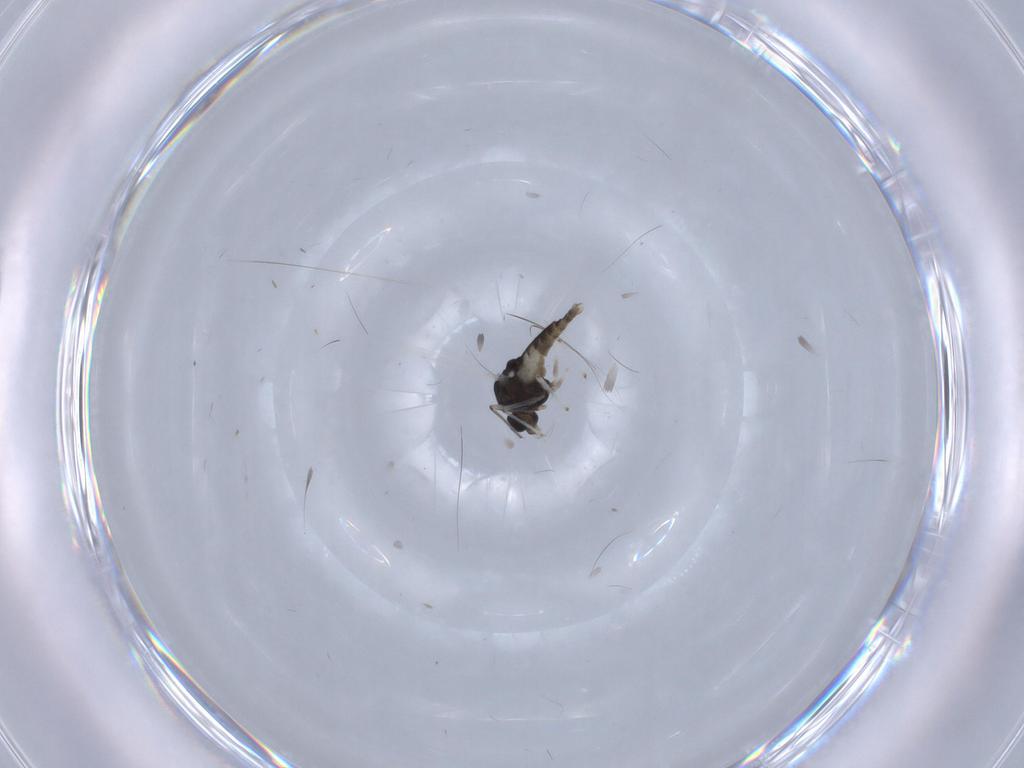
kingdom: Animalia
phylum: Arthropoda
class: Insecta
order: Diptera
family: Chironomidae
